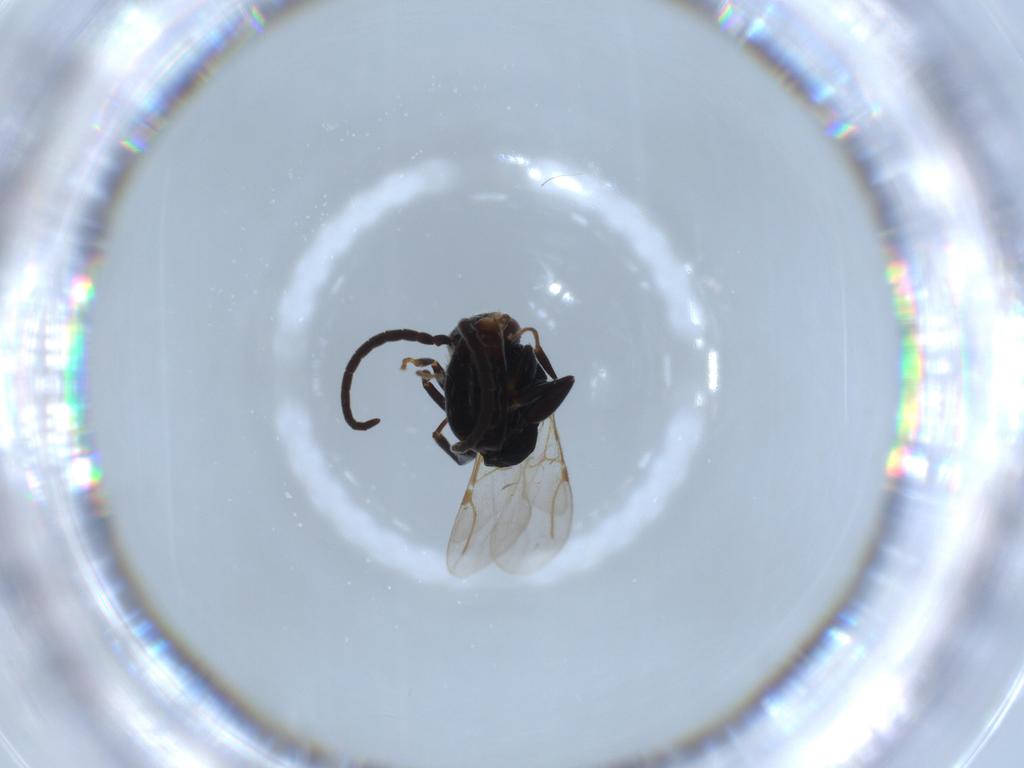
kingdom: Animalia
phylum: Arthropoda
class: Insecta
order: Hymenoptera
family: Bethylidae
